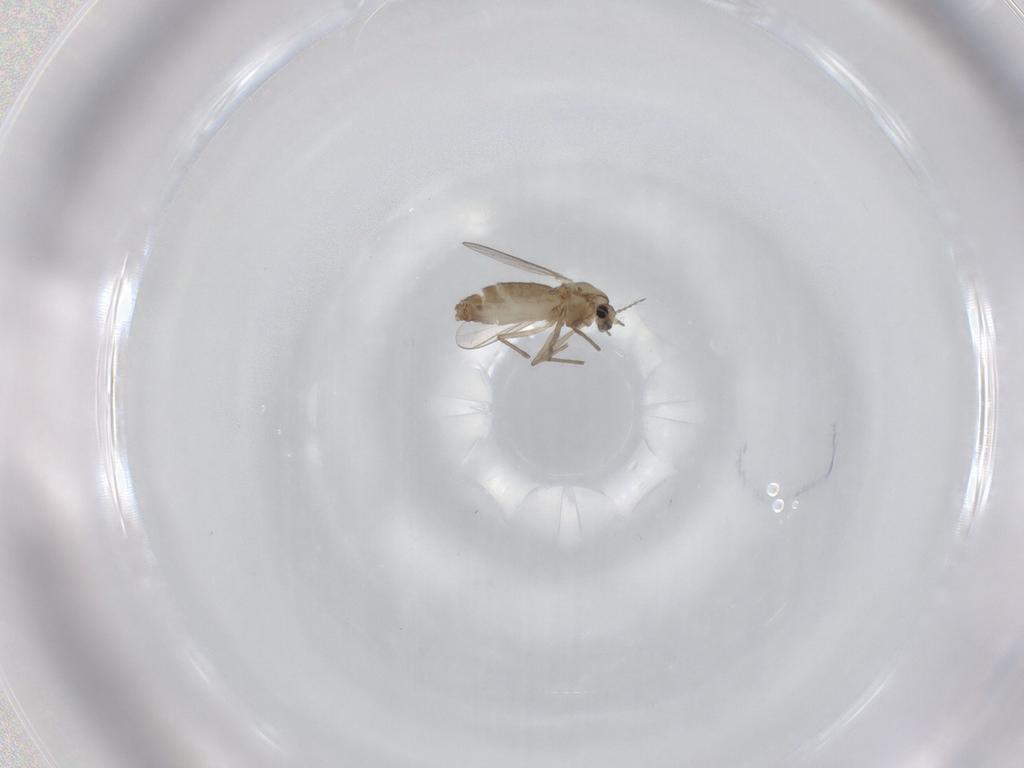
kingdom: Animalia
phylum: Arthropoda
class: Insecta
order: Diptera
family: Chironomidae
